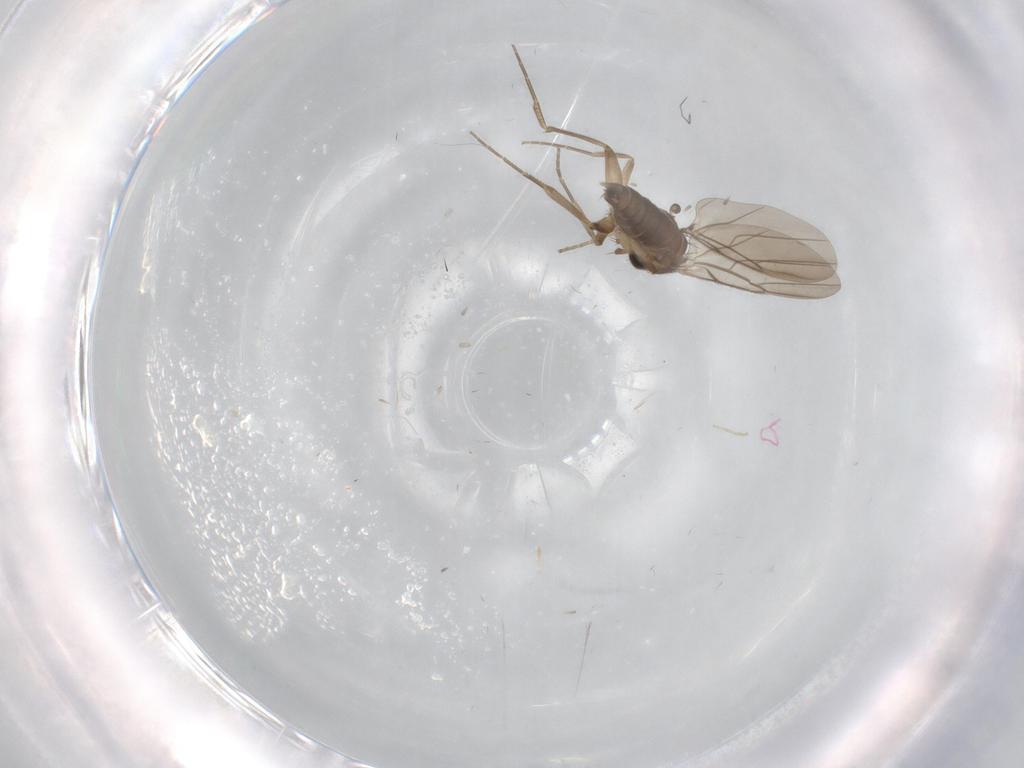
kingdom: Animalia
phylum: Arthropoda
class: Insecta
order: Diptera
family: Cecidomyiidae
